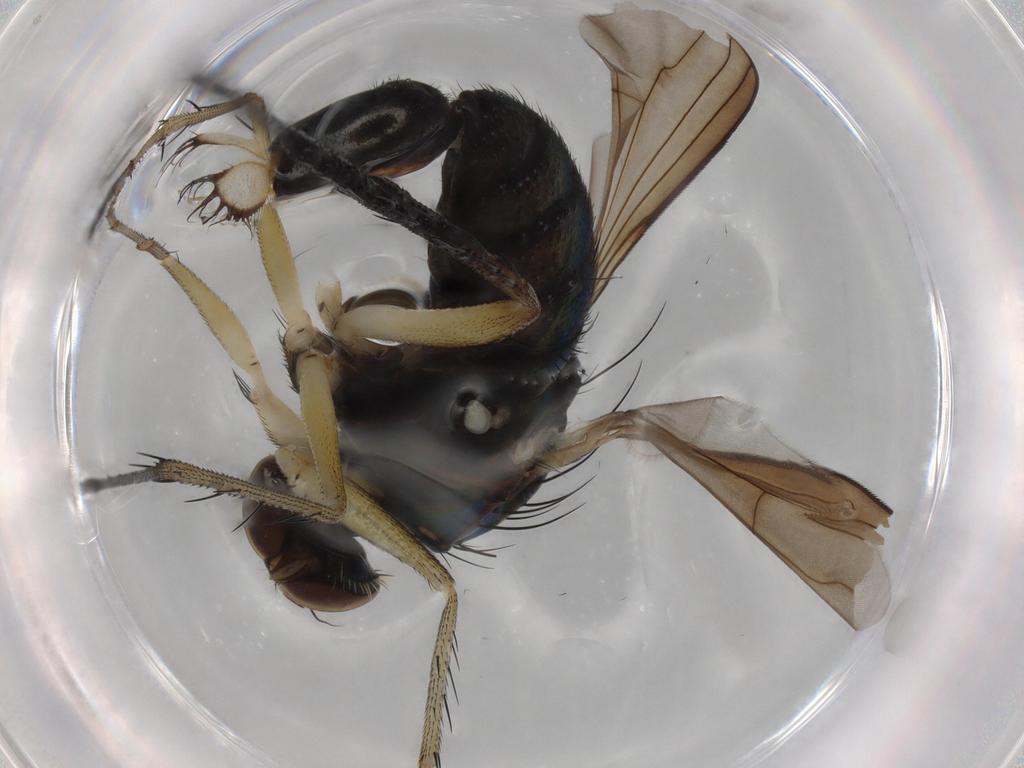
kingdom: Animalia
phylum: Arthropoda
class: Insecta
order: Diptera
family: Dolichopodidae
